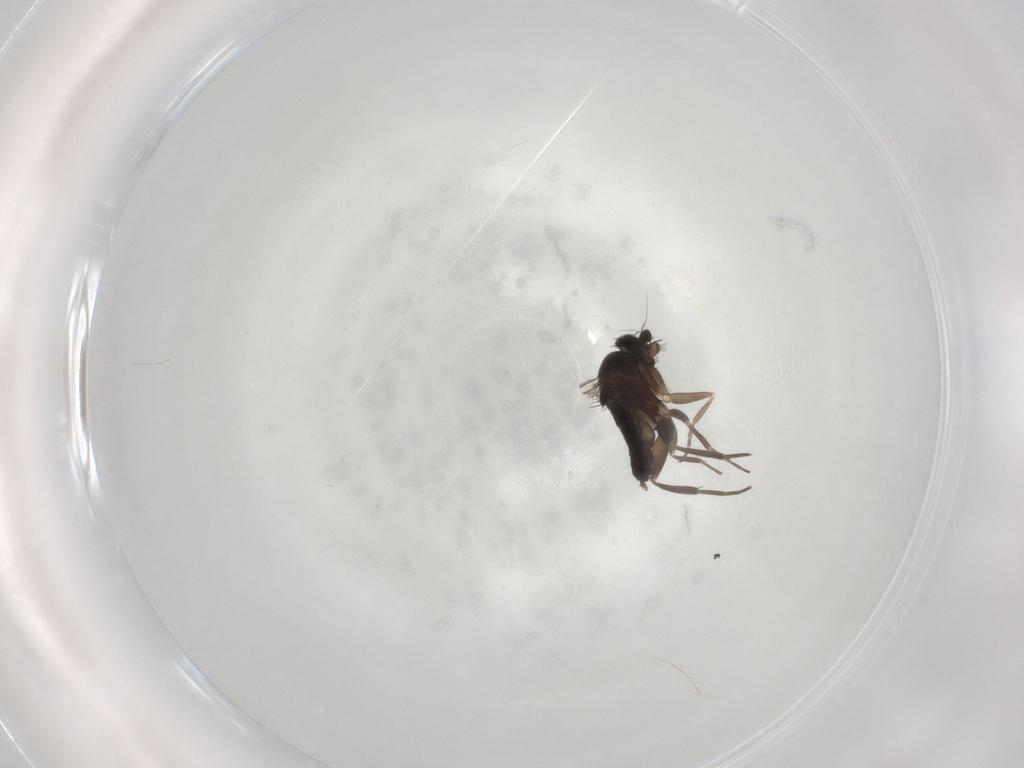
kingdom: Animalia
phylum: Arthropoda
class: Insecta
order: Diptera
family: Phoridae
